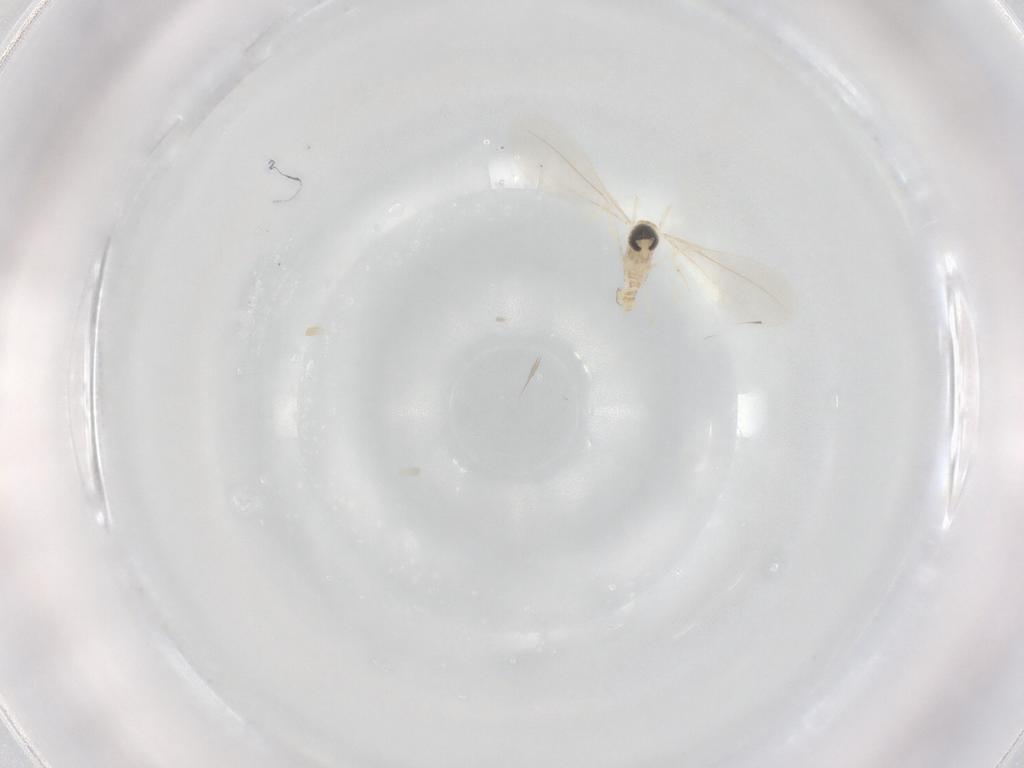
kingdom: Animalia
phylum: Arthropoda
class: Insecta
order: Diptera
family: Cecidomyiidae
